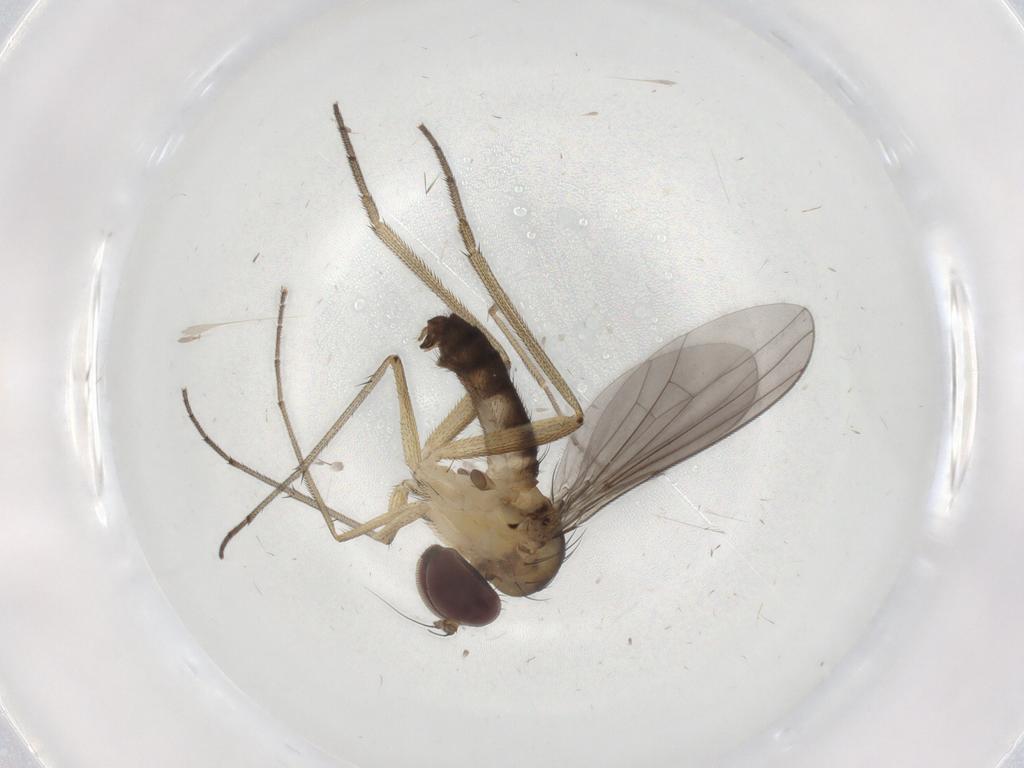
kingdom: Animalia
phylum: Arthropoda
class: Insecta
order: Diptera
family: Dolichopodidae
